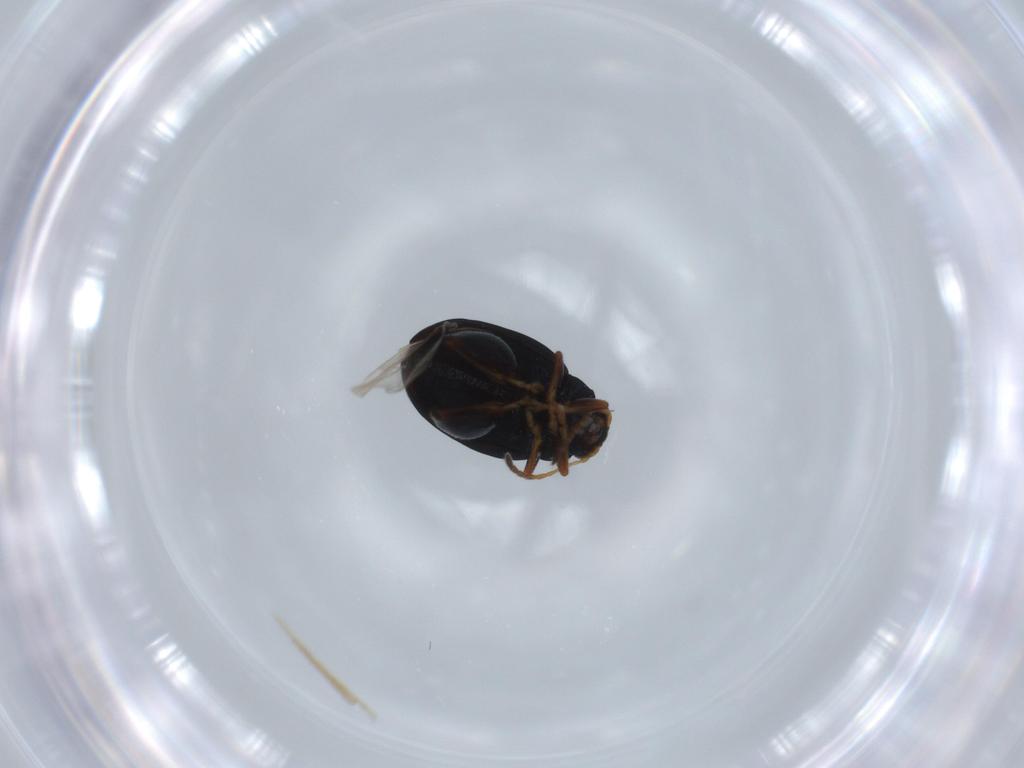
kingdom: Animalia
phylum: Arthropoda
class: Insecta
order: Coleoptera
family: Chrysomelidae
